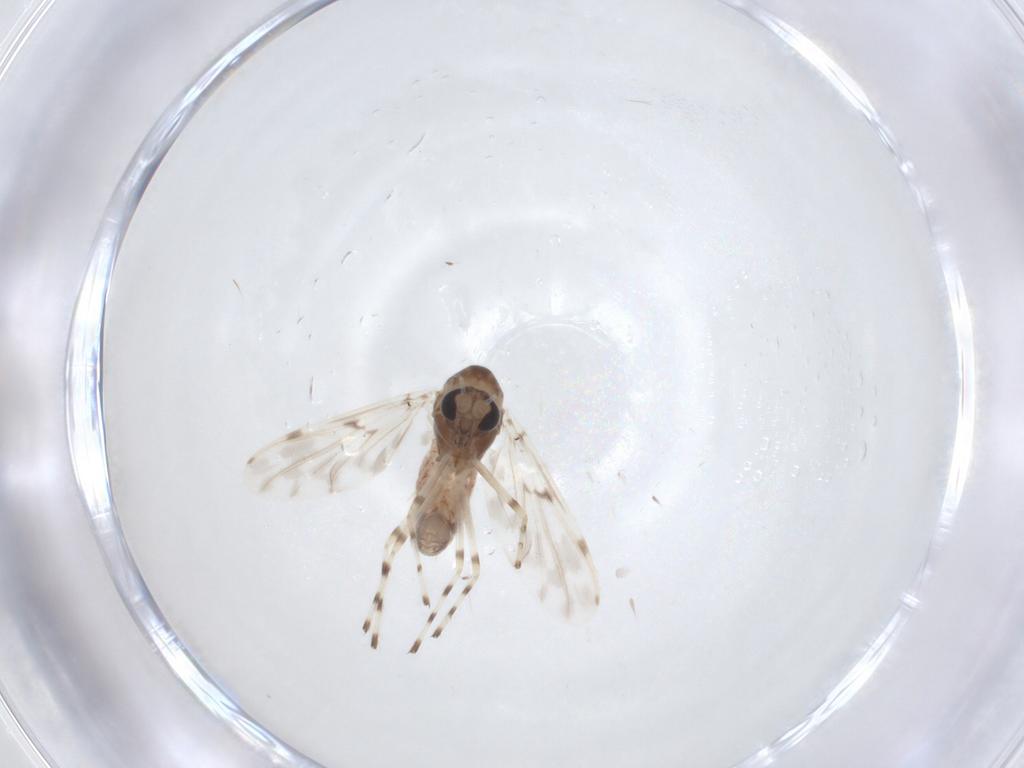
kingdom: Animalia
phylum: Arthropoda
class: Insecta
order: Diptera
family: Chironomidae
